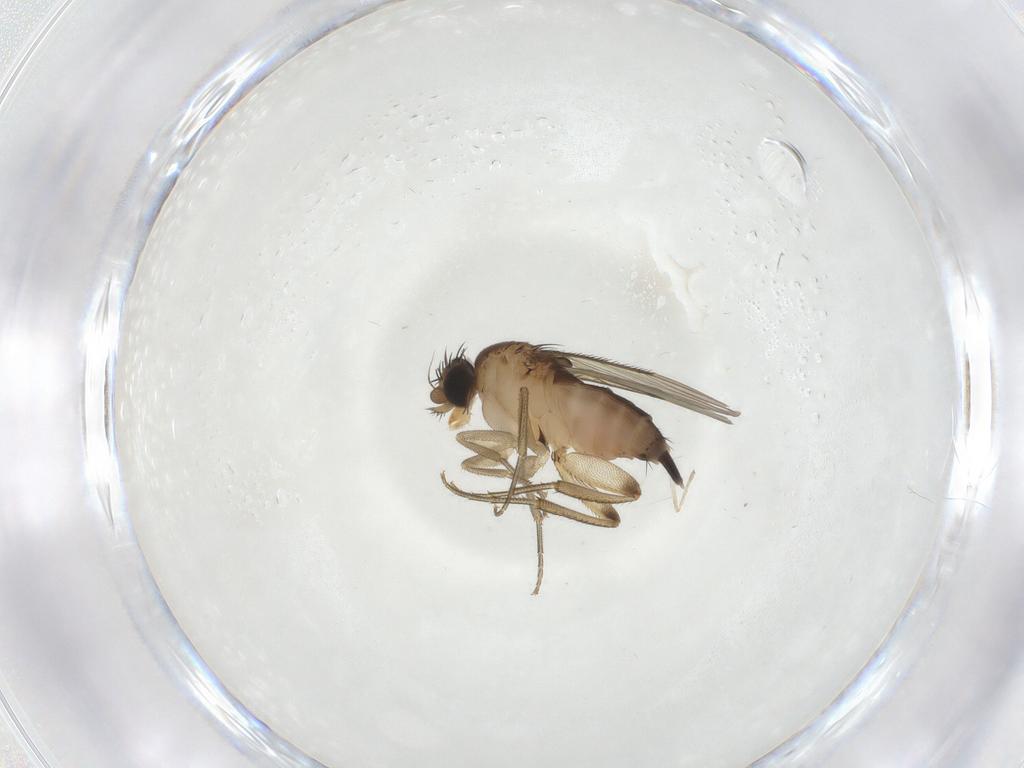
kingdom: Animalia
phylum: Arthropoda
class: Insecta
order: Diptera
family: Chironomidae
